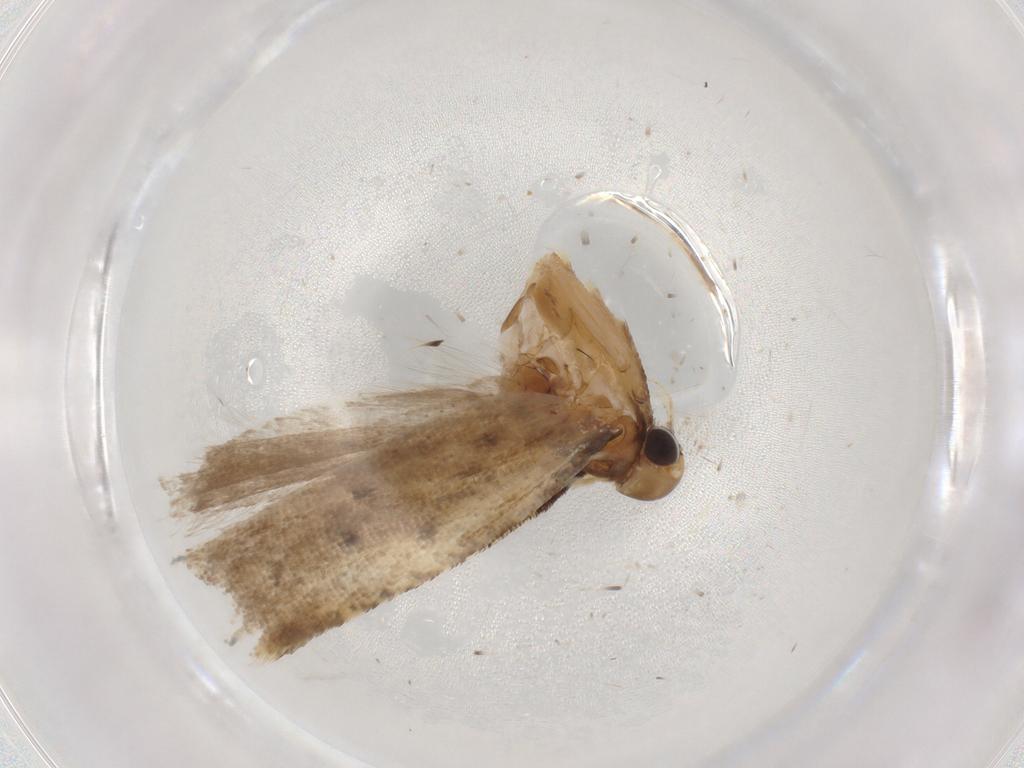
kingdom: Animalia
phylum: Arthropoda
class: Insecta
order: Lepidoptera
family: Gelechiidae
